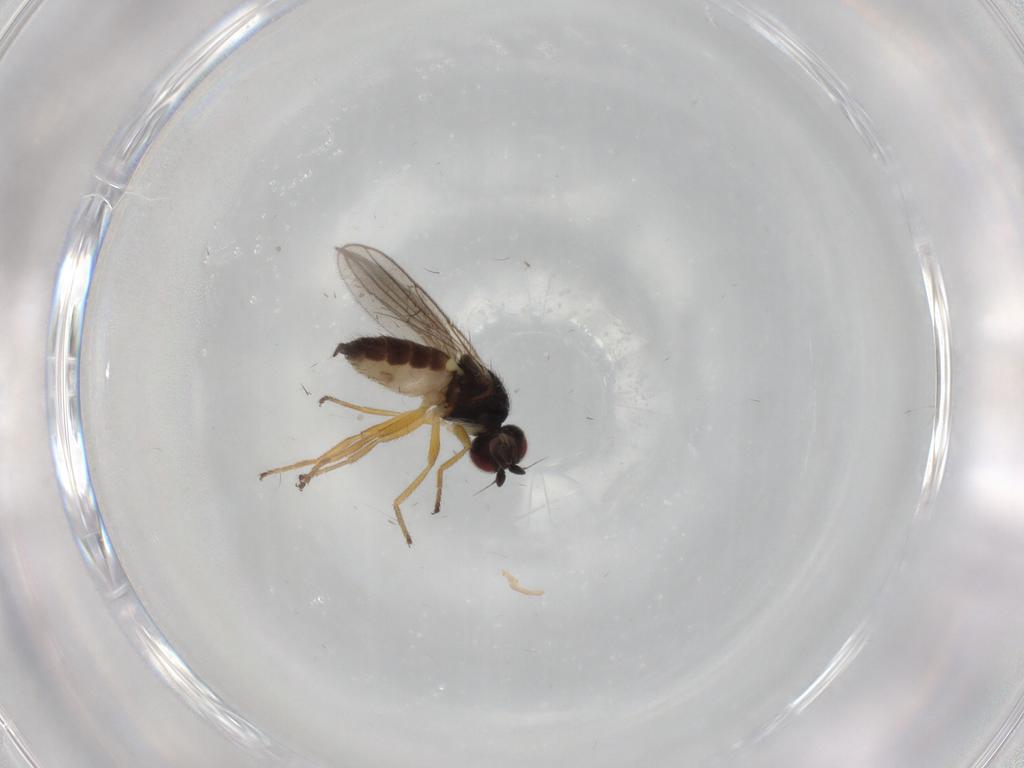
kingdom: Animalia
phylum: Arthropoda
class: Insecta
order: Diptera
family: Chloropidae
